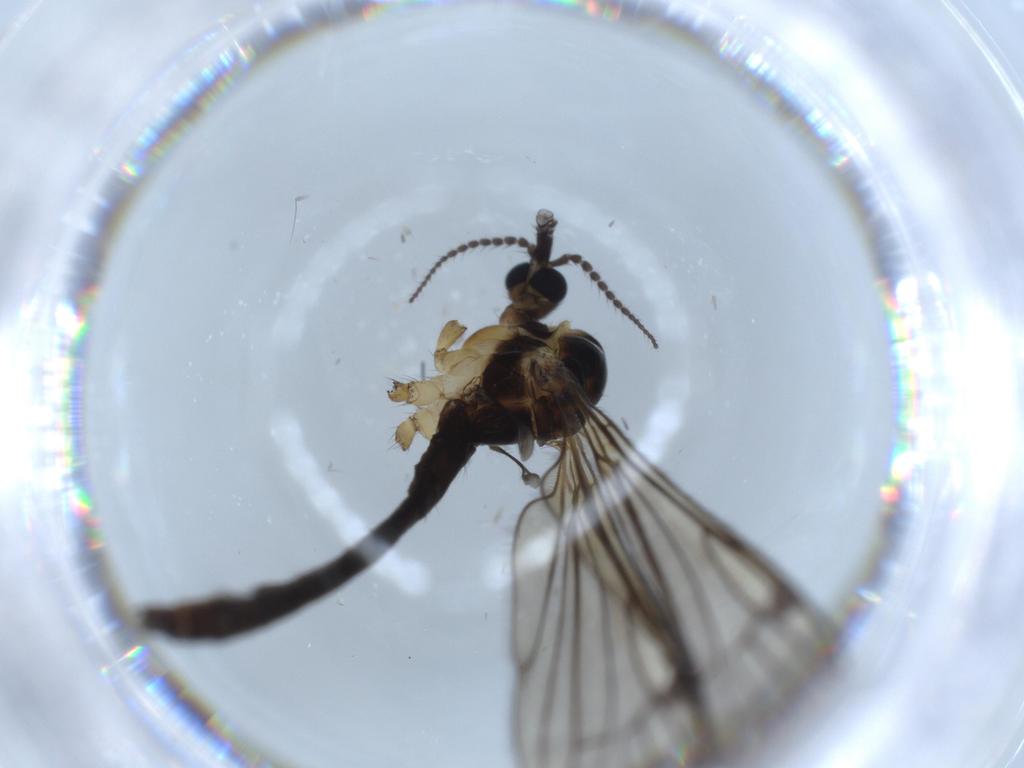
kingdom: Animalia
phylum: Arthropoda
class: Insecta
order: Diptera
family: Limoniidae
